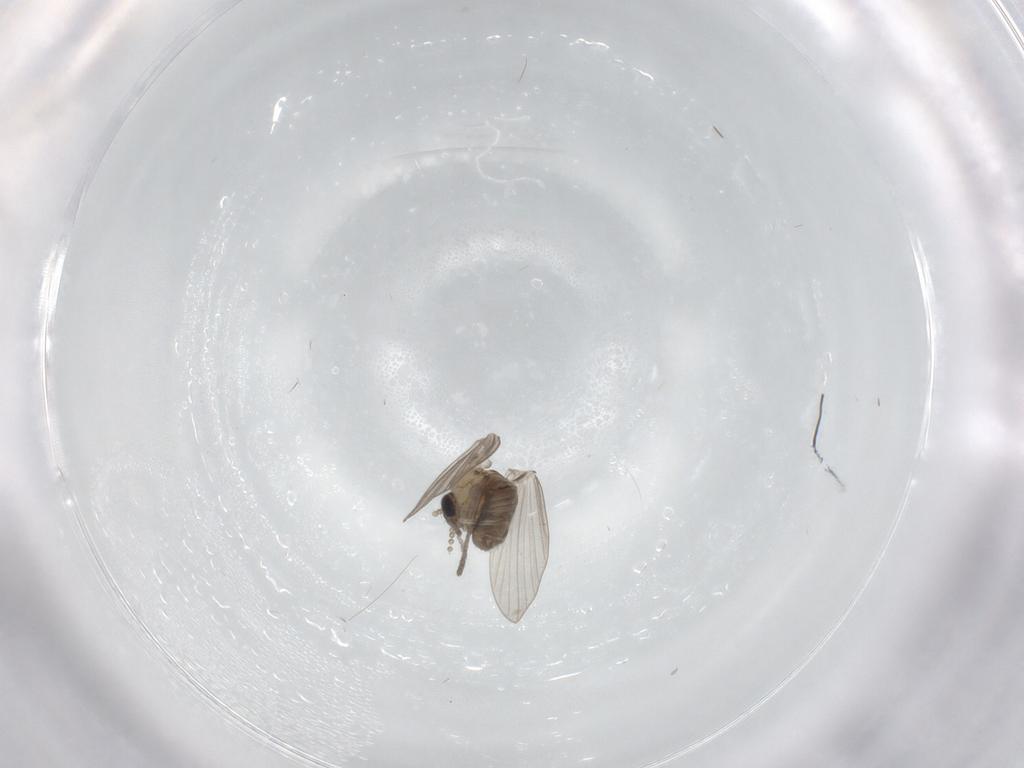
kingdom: Animalia
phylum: Arthropoda
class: Insecta
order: Diptera
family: Drosophilidae
